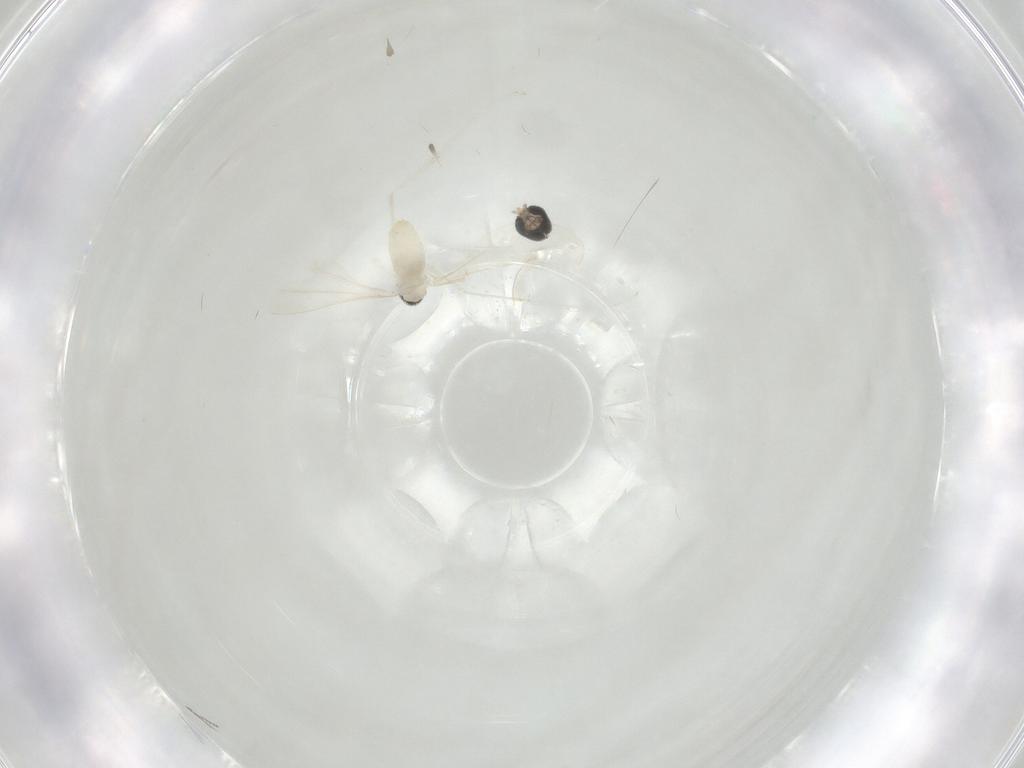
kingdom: Animalia
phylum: Arthropoda
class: Insecta
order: Diptera
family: Cecidomyiidae
